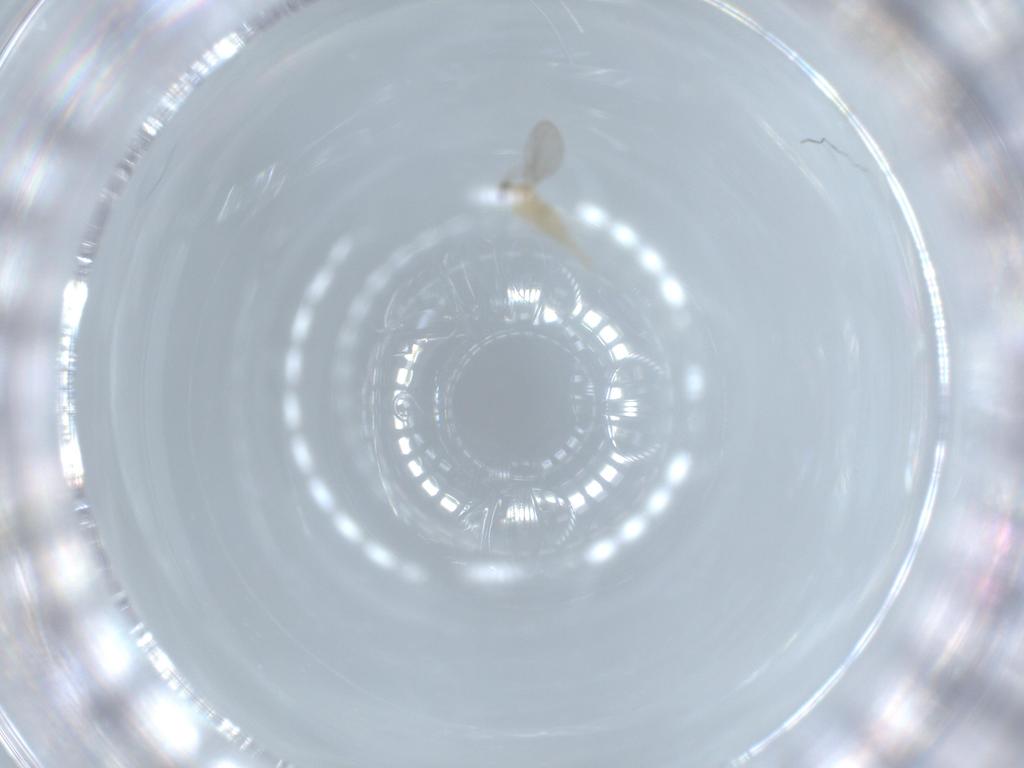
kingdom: Animalia
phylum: Arthropoda
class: Insecta
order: Diptera
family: Cecidomyiidae
